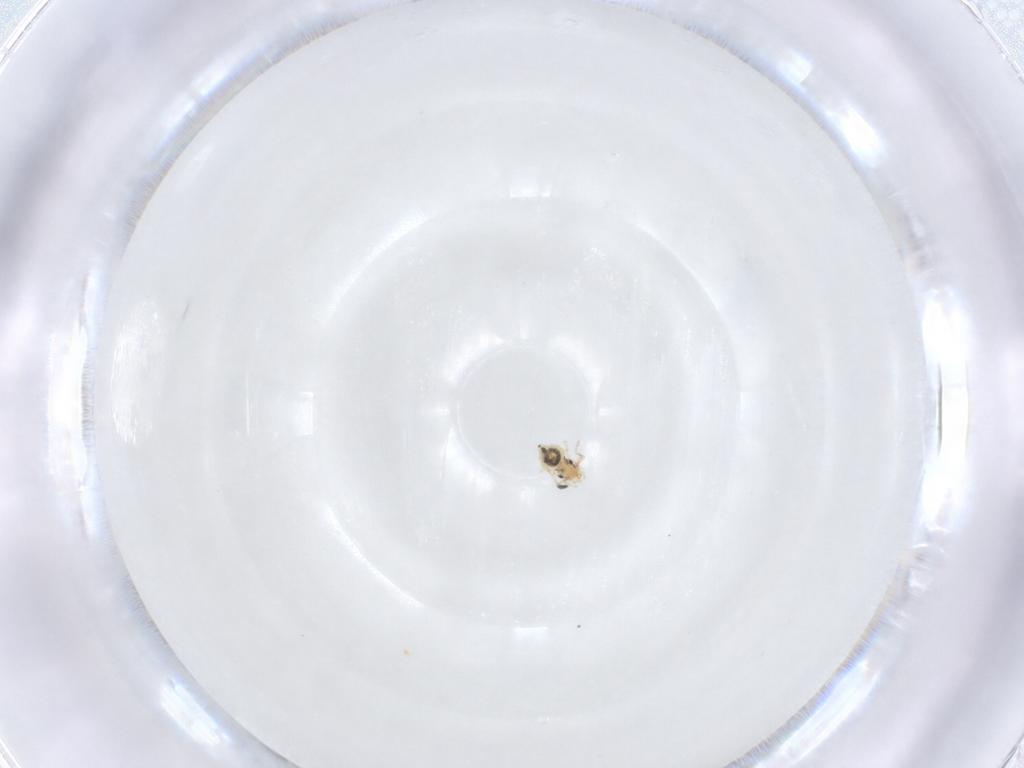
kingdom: Animalia
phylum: Arthropoda
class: Insecta
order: Psocodea
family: Caeciliusidae
